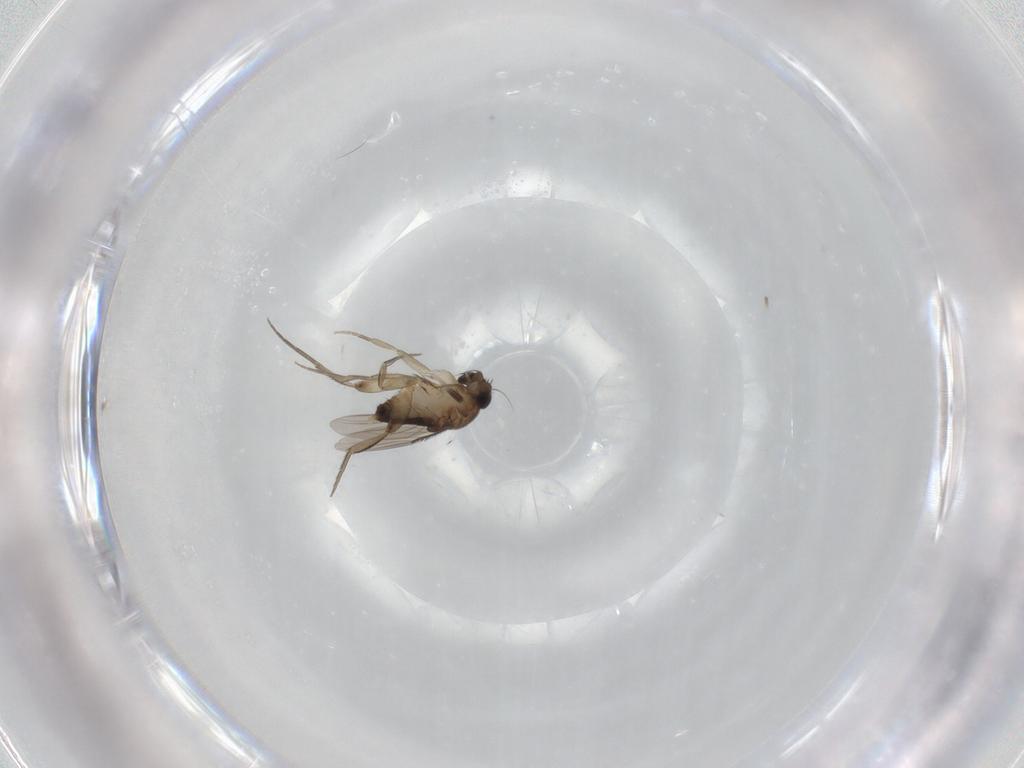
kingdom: Animalia
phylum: Arthropoda
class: Insecta
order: Diptera
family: Phoridae
